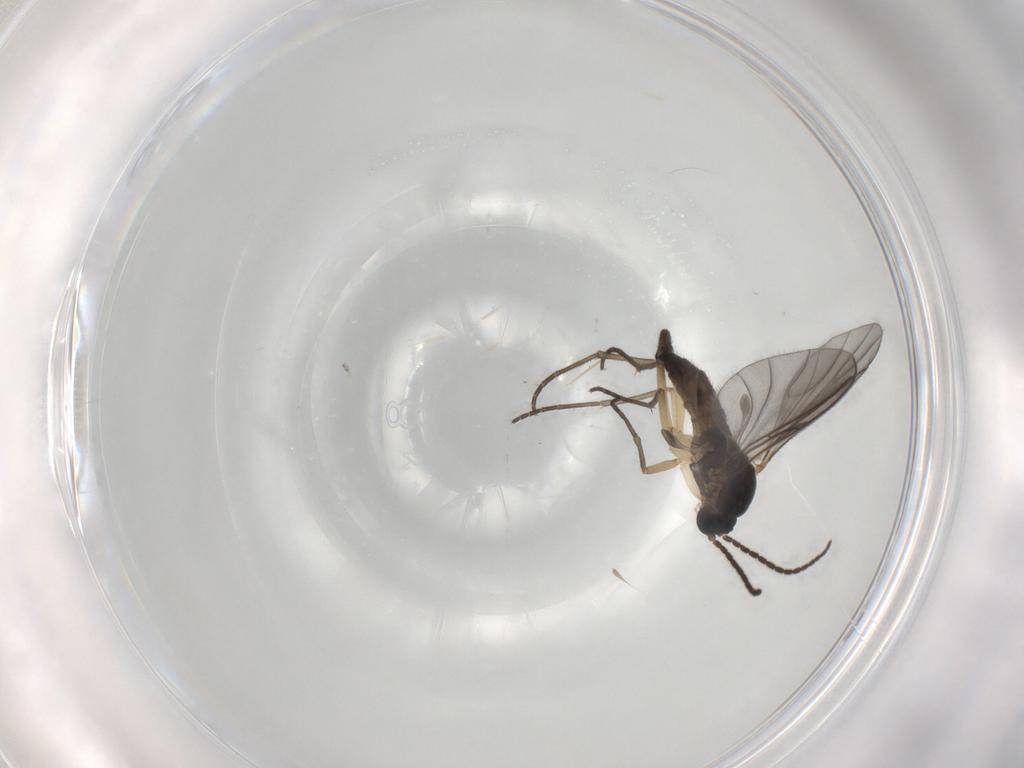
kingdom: Animalia
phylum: Arthropoda
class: Insecta
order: Diptera
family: Sciaridae
